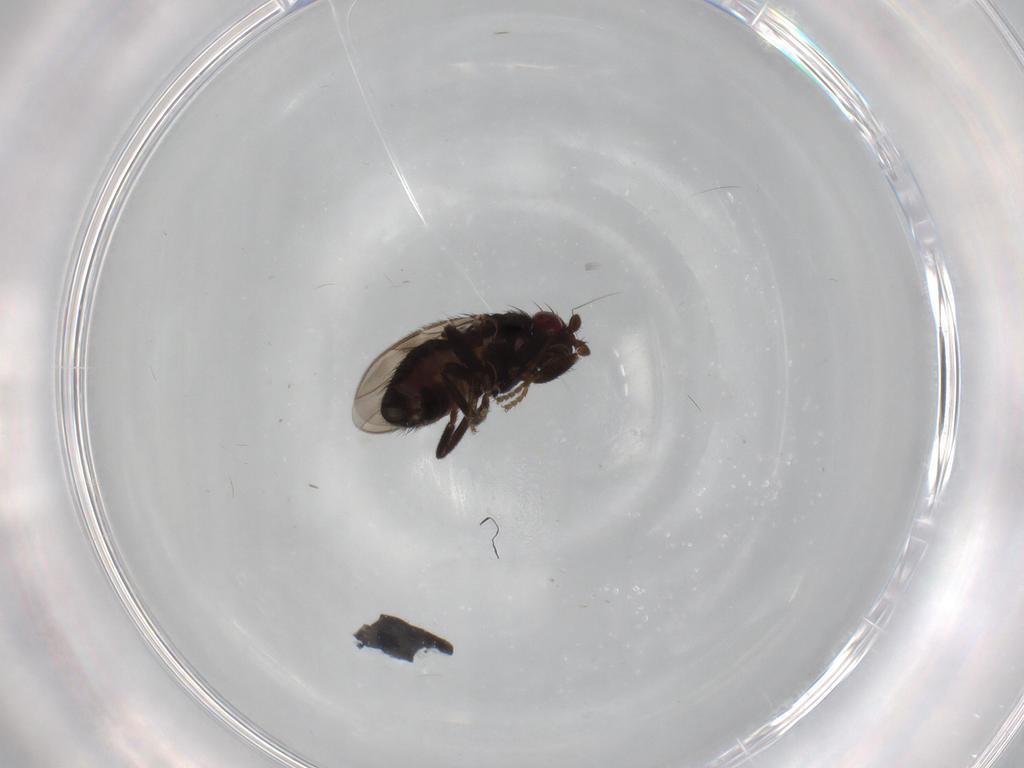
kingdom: Animalia
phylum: Arthropoda
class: Insecta
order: Diptera
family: Sphaeroceridae
